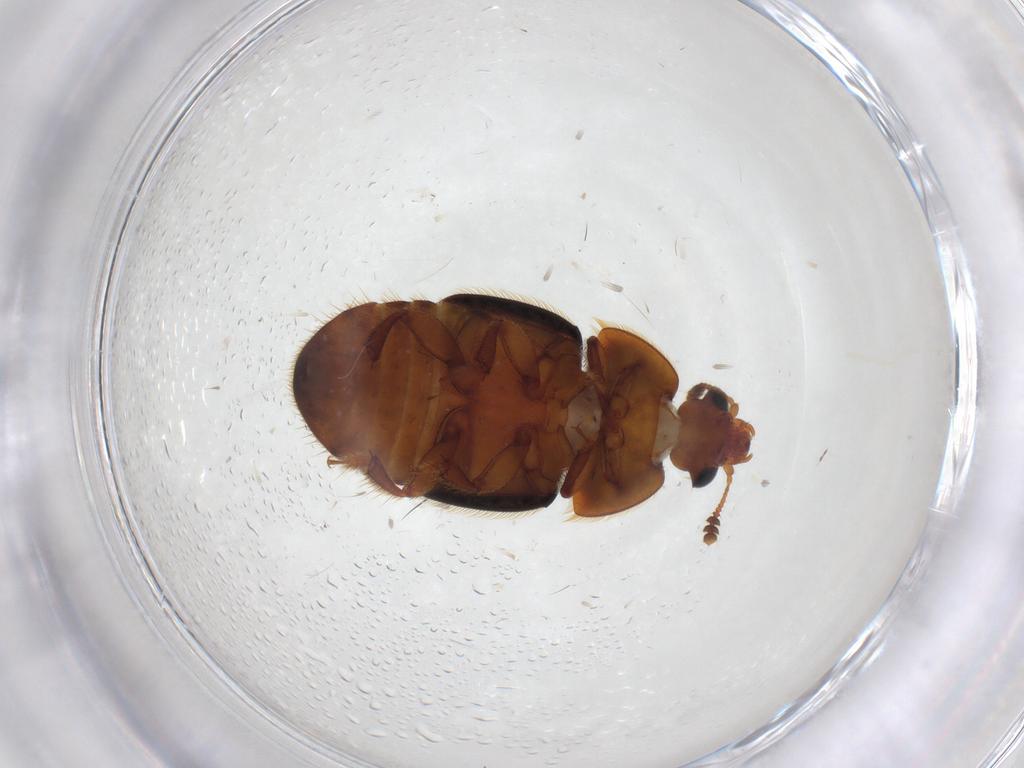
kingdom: Animalia
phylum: Arthropoda
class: Insecta
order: Coleoptera
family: Nitidulidae
